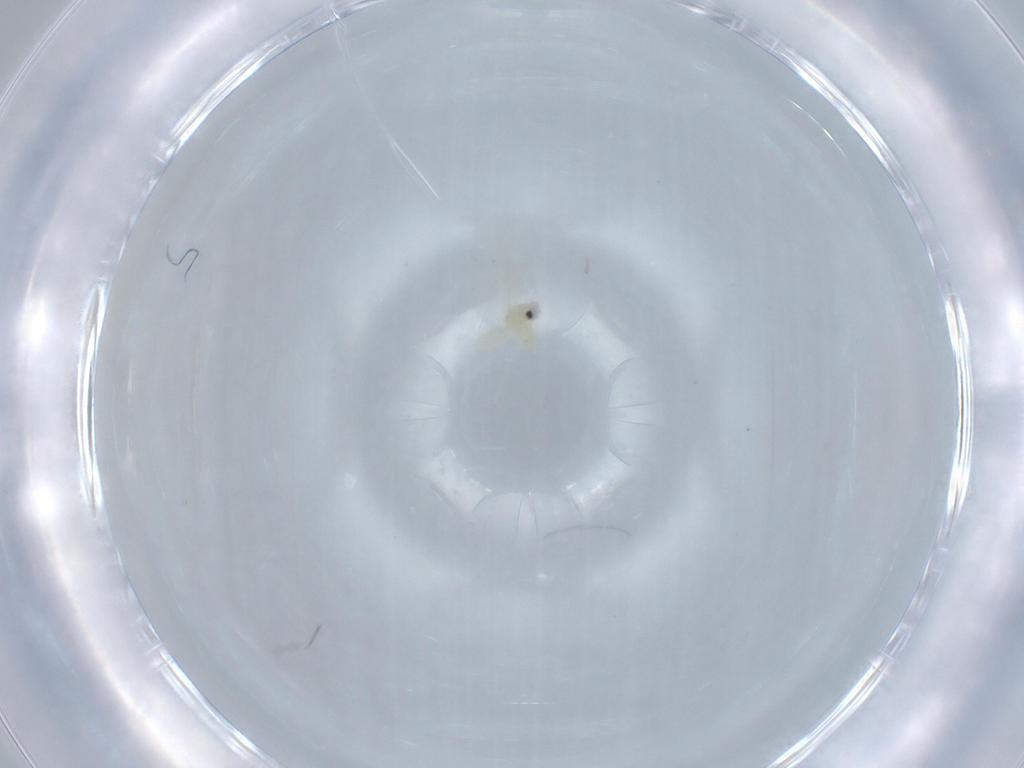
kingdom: Animalia
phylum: Arthropoda
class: Insecta
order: Hemiptera
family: Aleyrodidae
